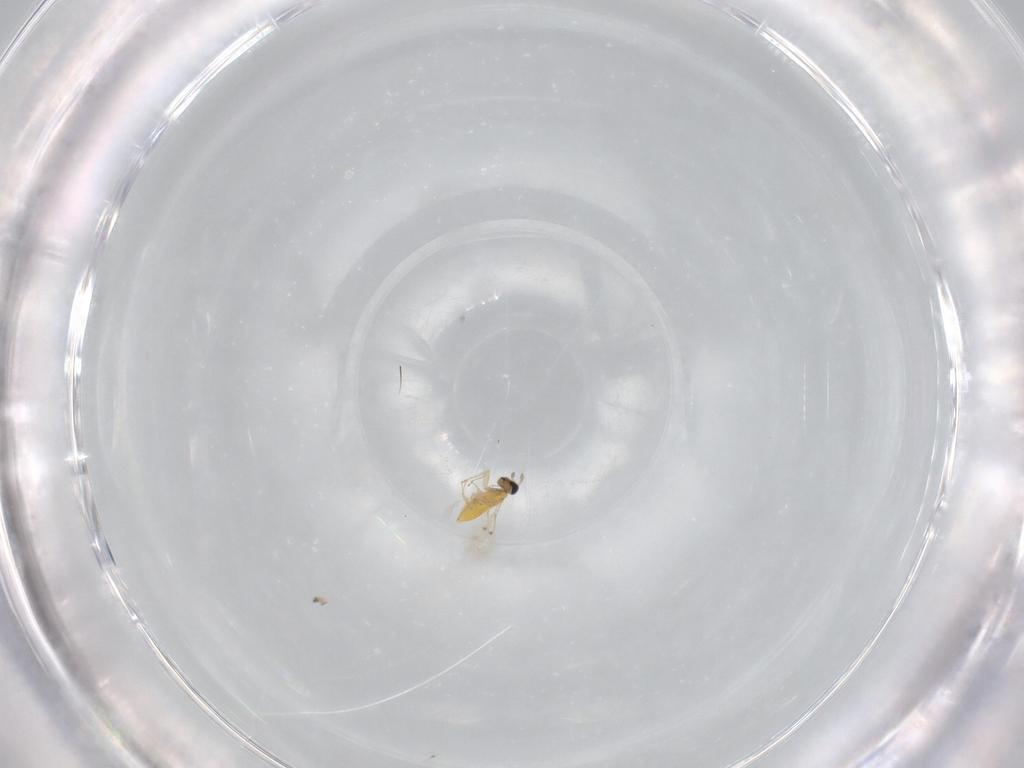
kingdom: Animalia
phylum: Arthropoda
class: Insecta
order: Hymenoptera
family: Trichogrammatidae
